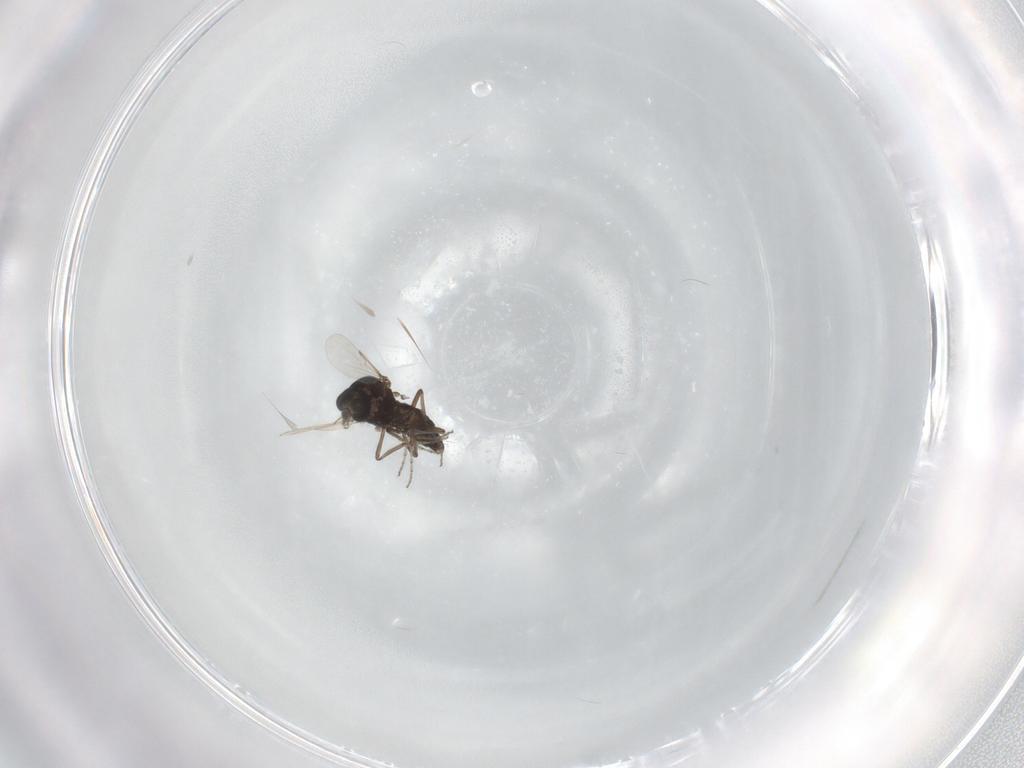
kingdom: Animalia
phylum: Arthropoda
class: Insecta
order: Diptera
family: Ceratopogonidae
